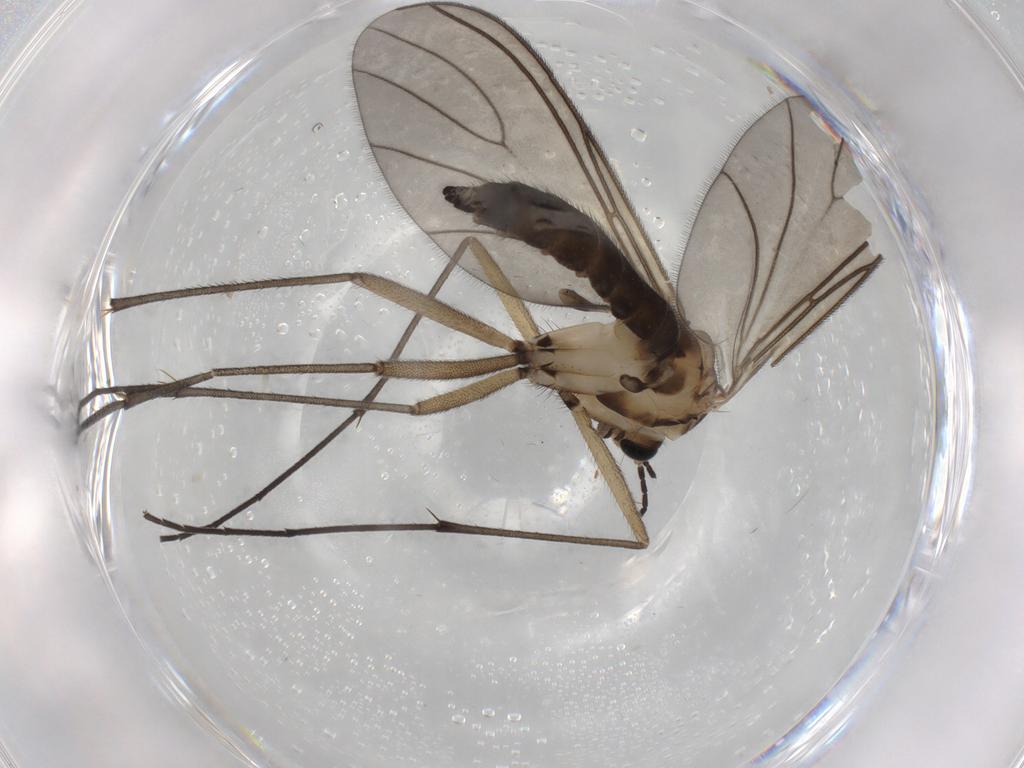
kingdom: Animalia
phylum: Arthropoda
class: Insecta
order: Diptera
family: Sciaridae
